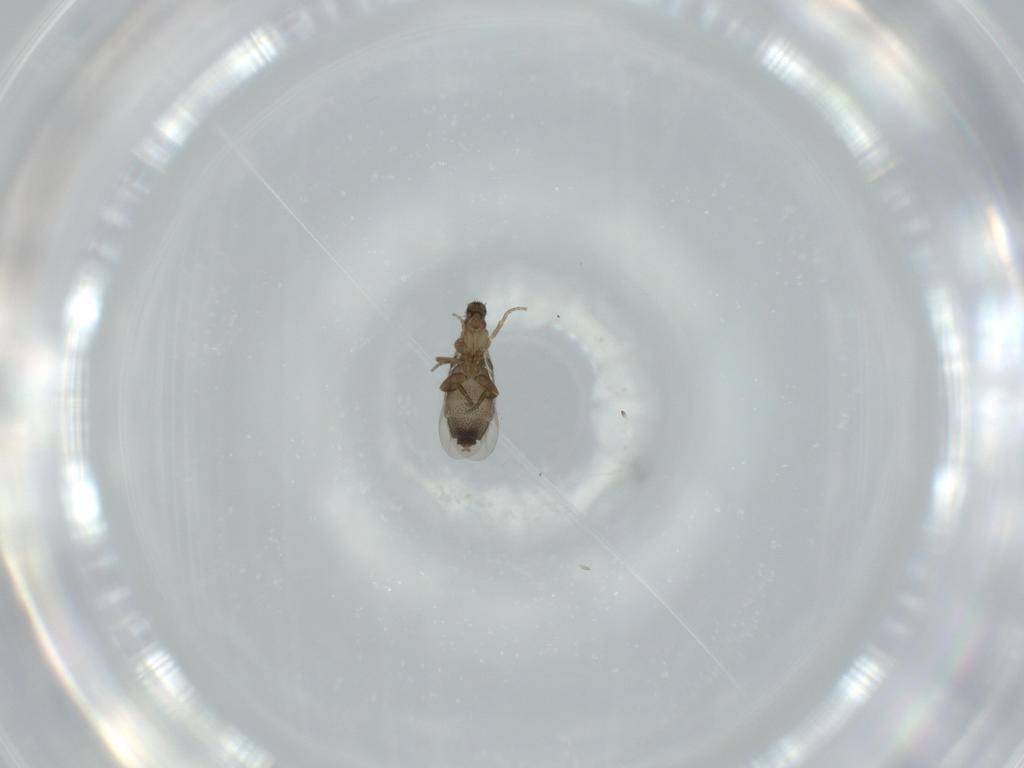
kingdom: Animalia
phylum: Arthropoda
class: Insecta
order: Diptera
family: Phoridae
